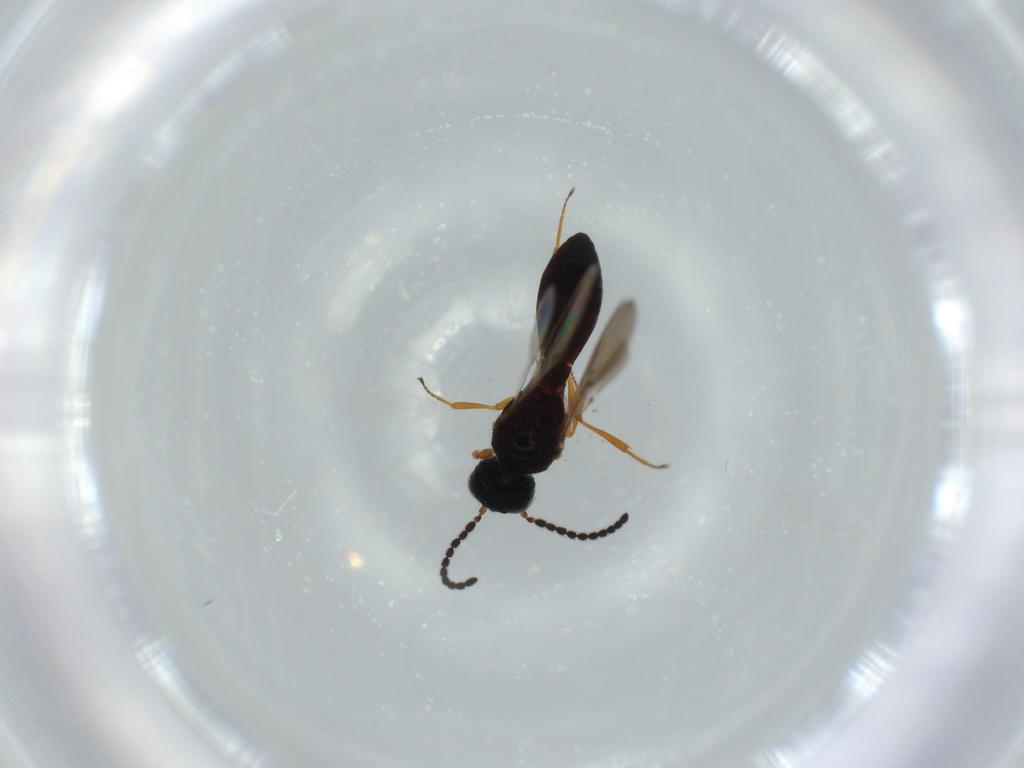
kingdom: Animalia
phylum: Arthropoda
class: Insecta
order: Hymenoptera
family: Scelionidae
